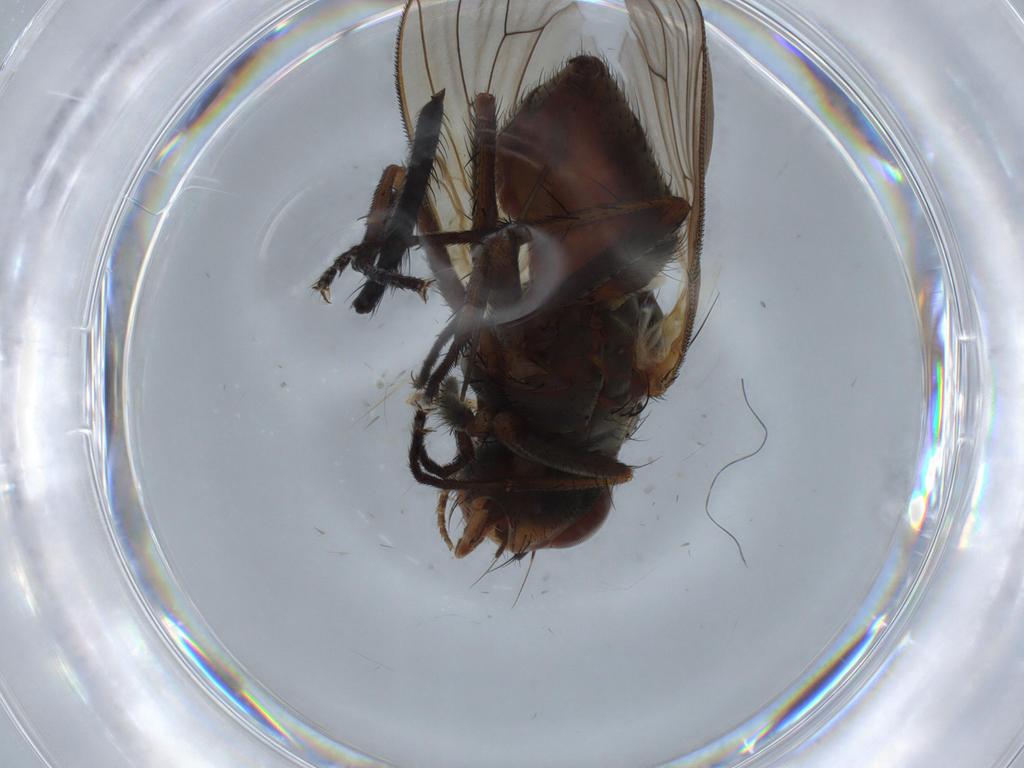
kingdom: Animalia
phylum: Arthropoda
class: Insecta
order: Diptera
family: Anthomyiidae
